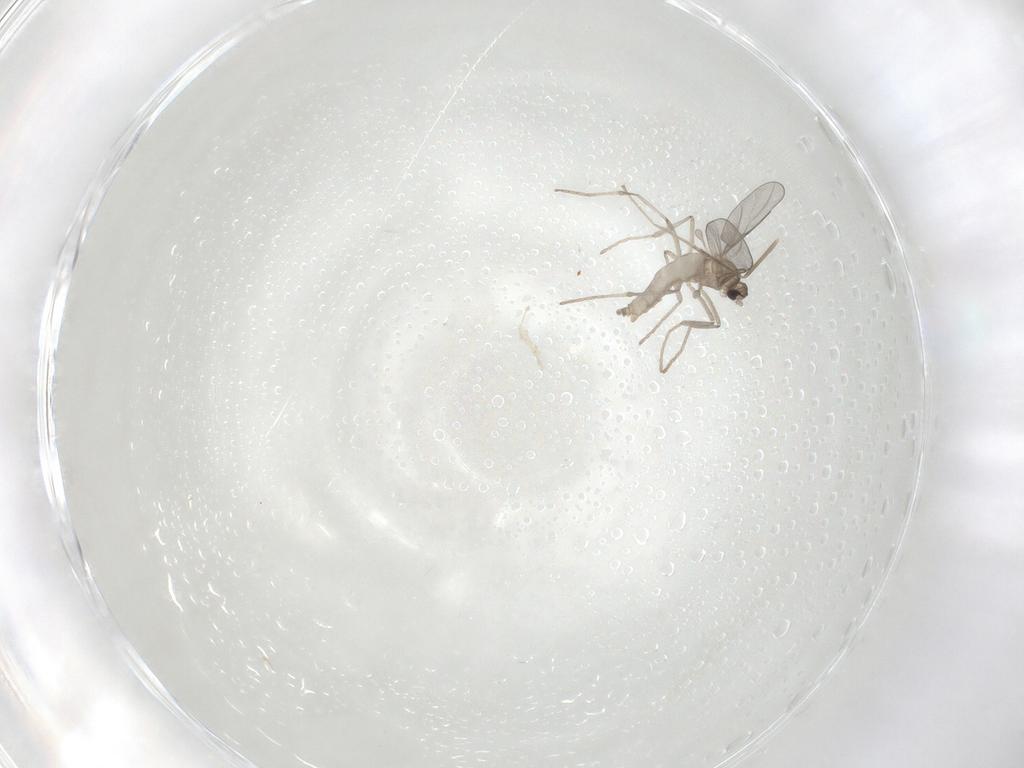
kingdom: Animalia
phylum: Arthropoda
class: Insecta
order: Diptera
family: Cecidomyiidae
